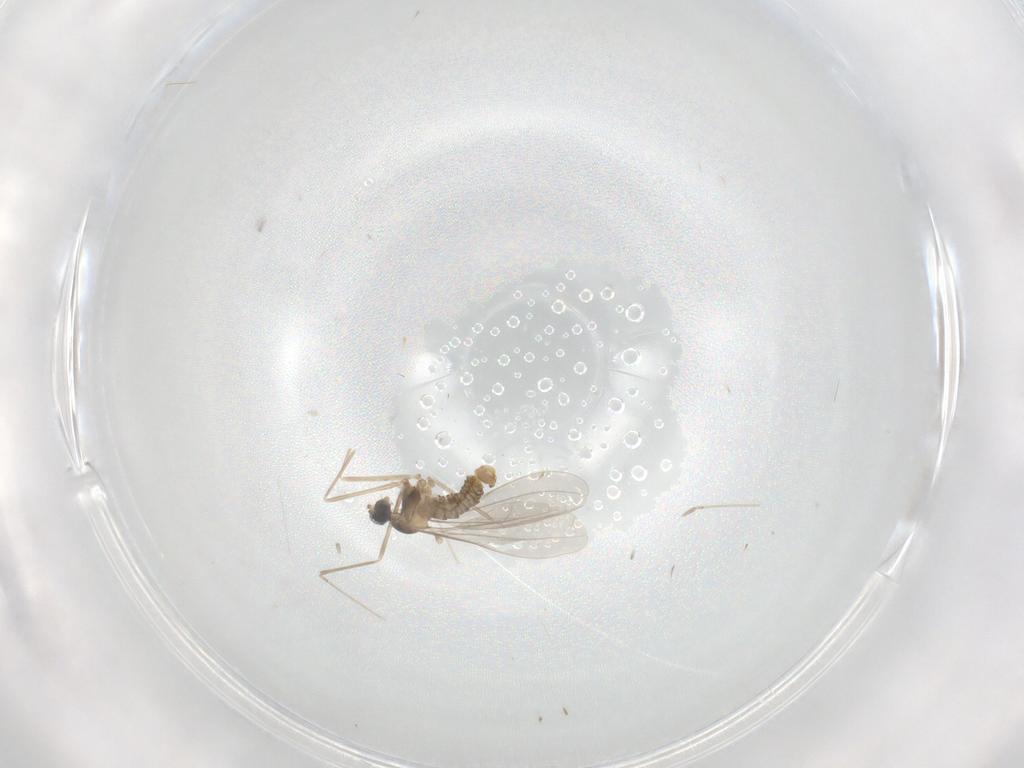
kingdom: Animalia
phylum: Arthropoda
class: Insecta
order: Diptera
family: Cecidomyiidae
